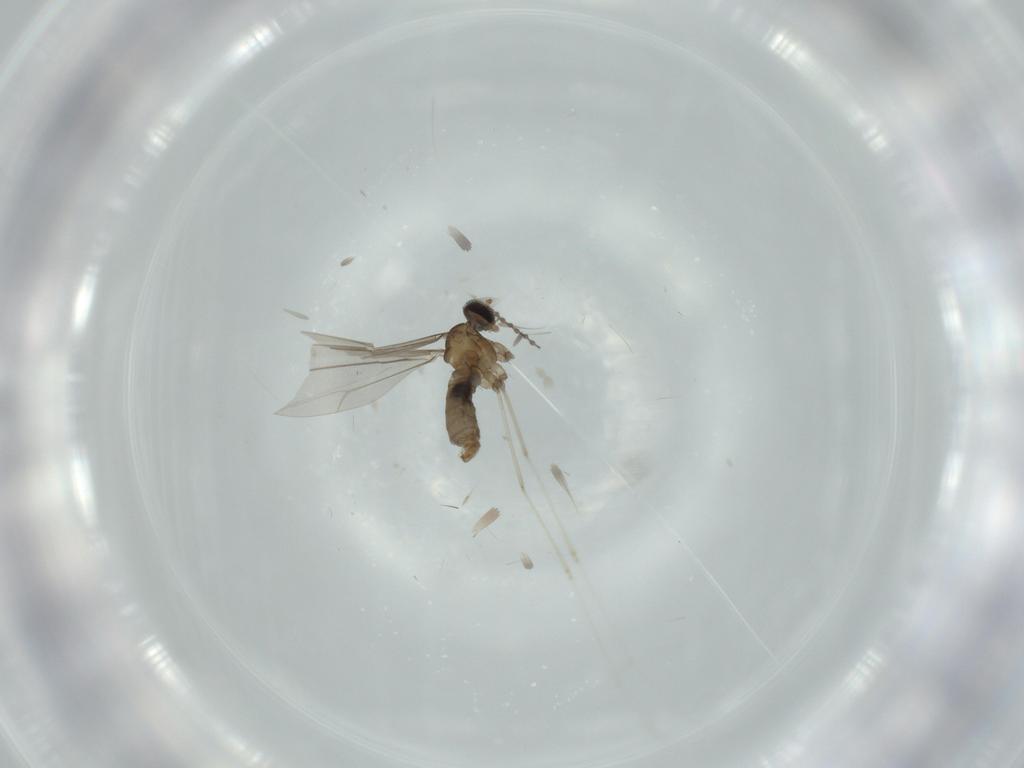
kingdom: Animalia
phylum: Arthropoda
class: Insecta
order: Diptera
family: Cecidomyiidae
